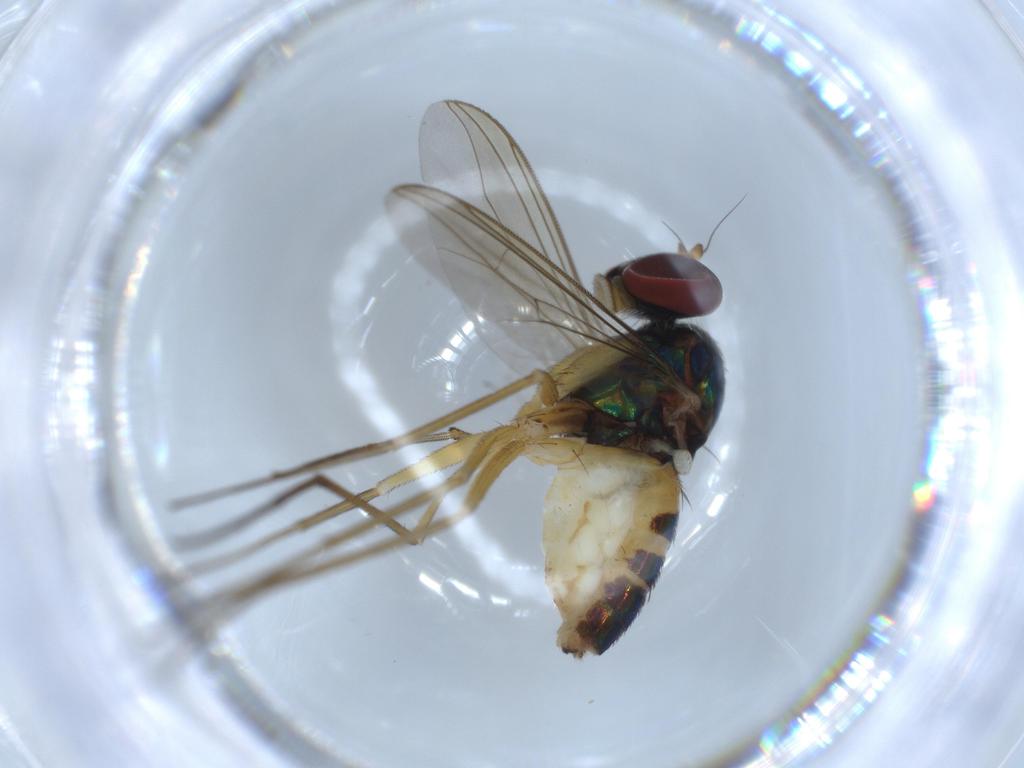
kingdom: Animalia
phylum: Arthropoda
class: Insecta
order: Diptera
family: Dolichopodidae
